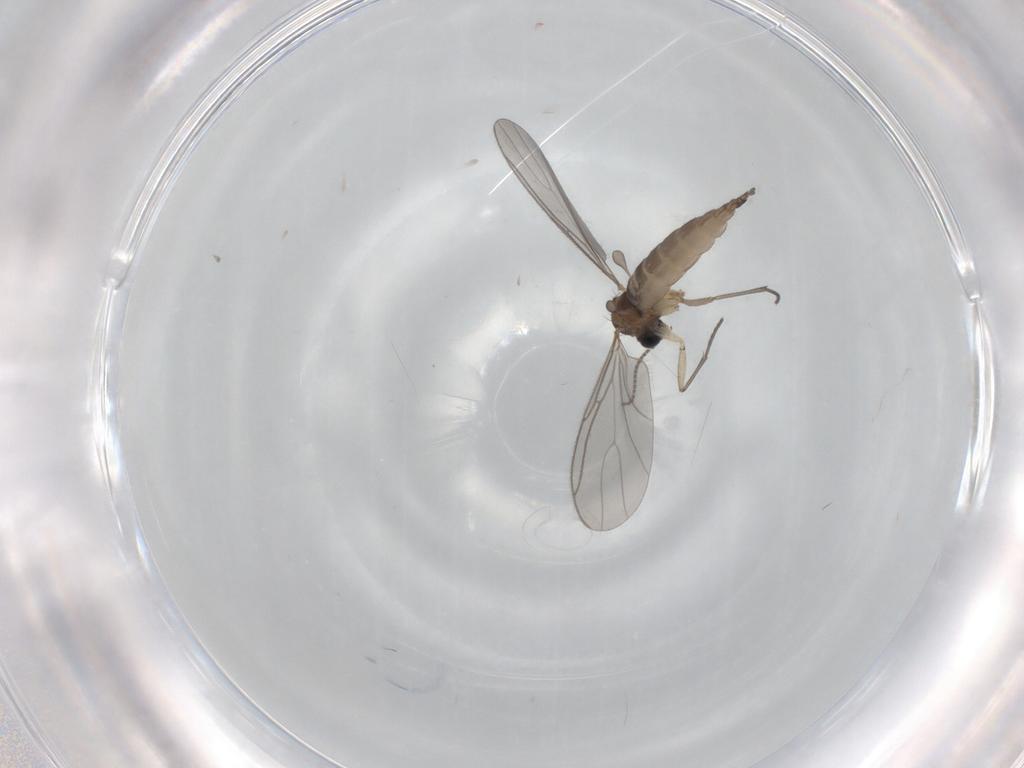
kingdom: Animalia
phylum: Arthropoda
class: Insecta
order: Diptera
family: Sciaridae
